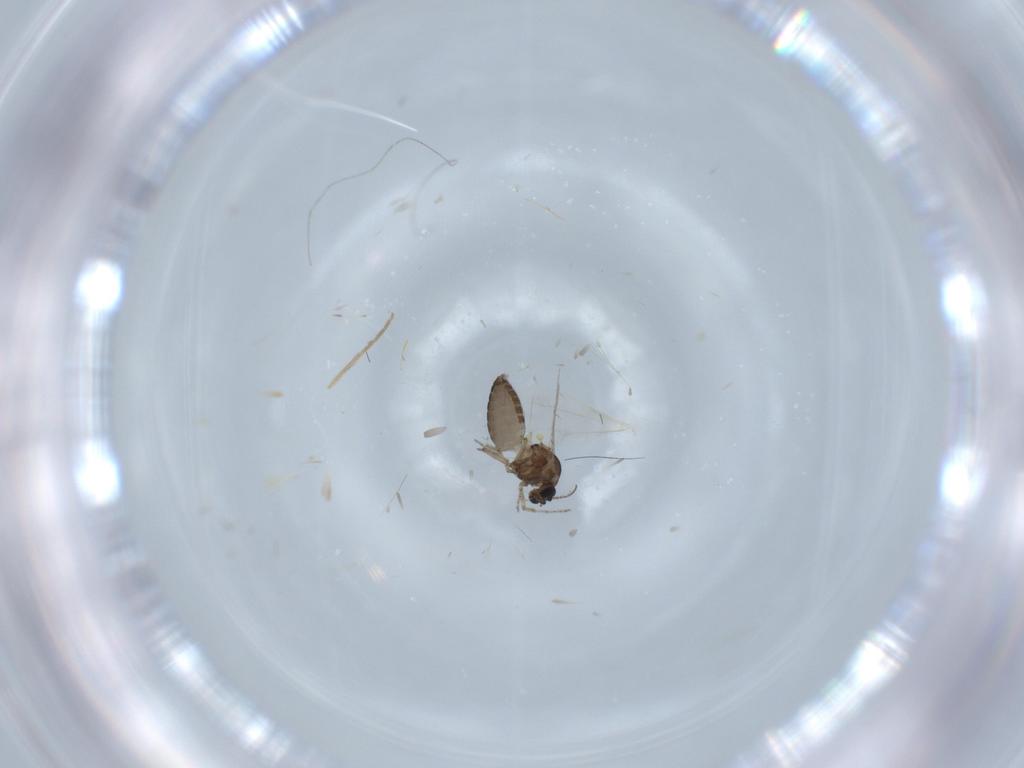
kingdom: Animalia
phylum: Arthropoda
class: Insecta
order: Diptera
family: Ceratopogonidae
